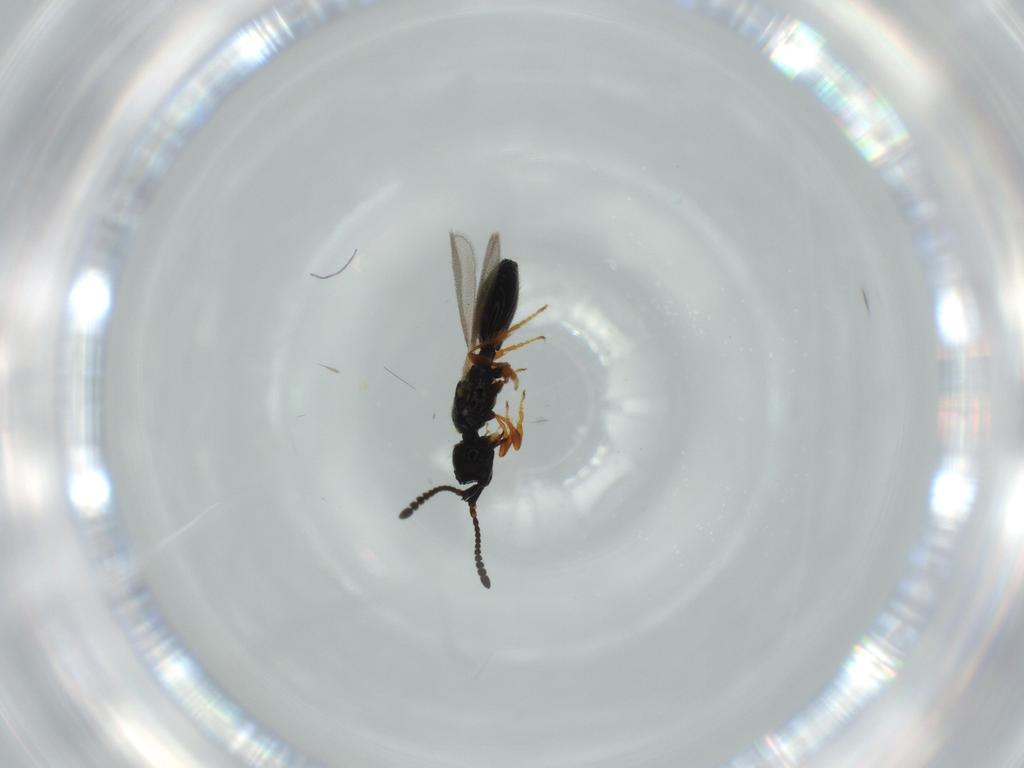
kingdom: Animalia
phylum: Arthropoda
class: Insecta
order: Hymenoptera
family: Diapriidae
